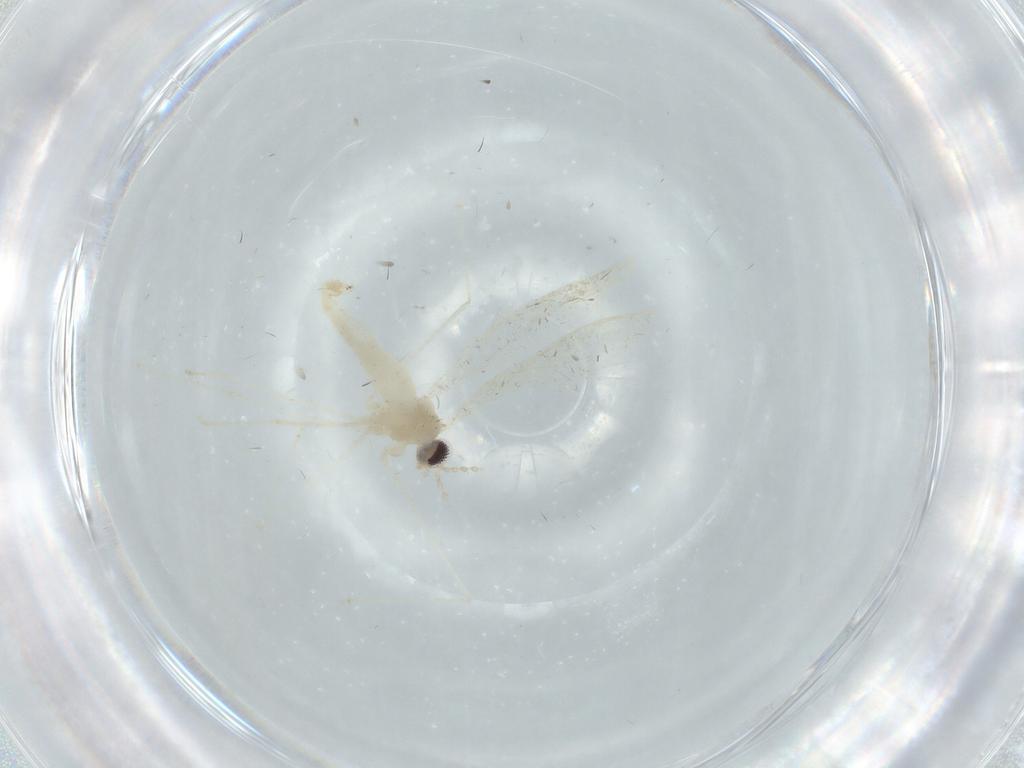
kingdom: Animalia
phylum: Arthropoda
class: Insecta
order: Diptera
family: Cecidomyiidae
